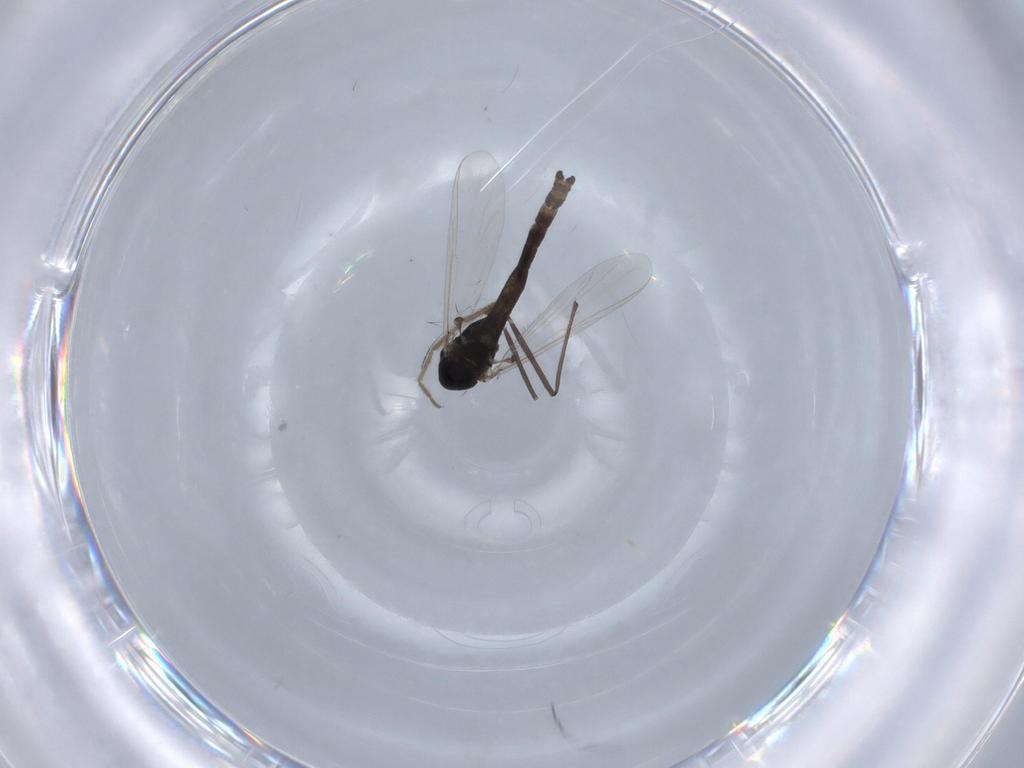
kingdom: Animalia
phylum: Arthropoda
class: Insecta
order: Diptera
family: Chironomidae
